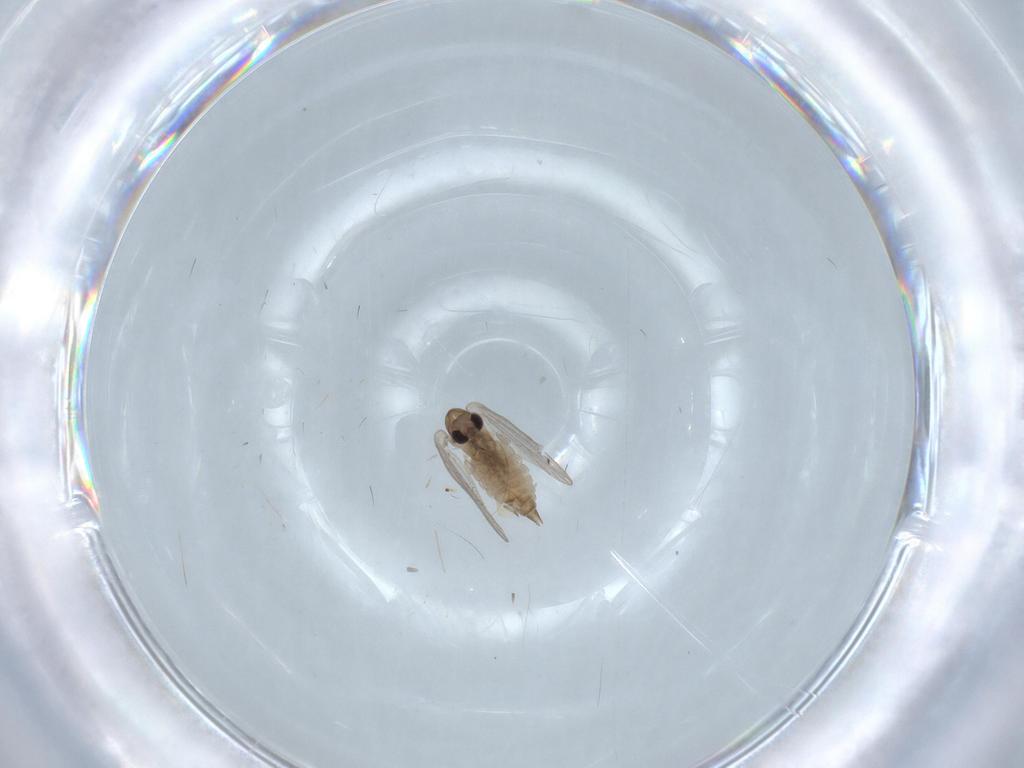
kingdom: Animalia
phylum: Arthropoda
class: Insecta
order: Diptera
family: Psychodidae
